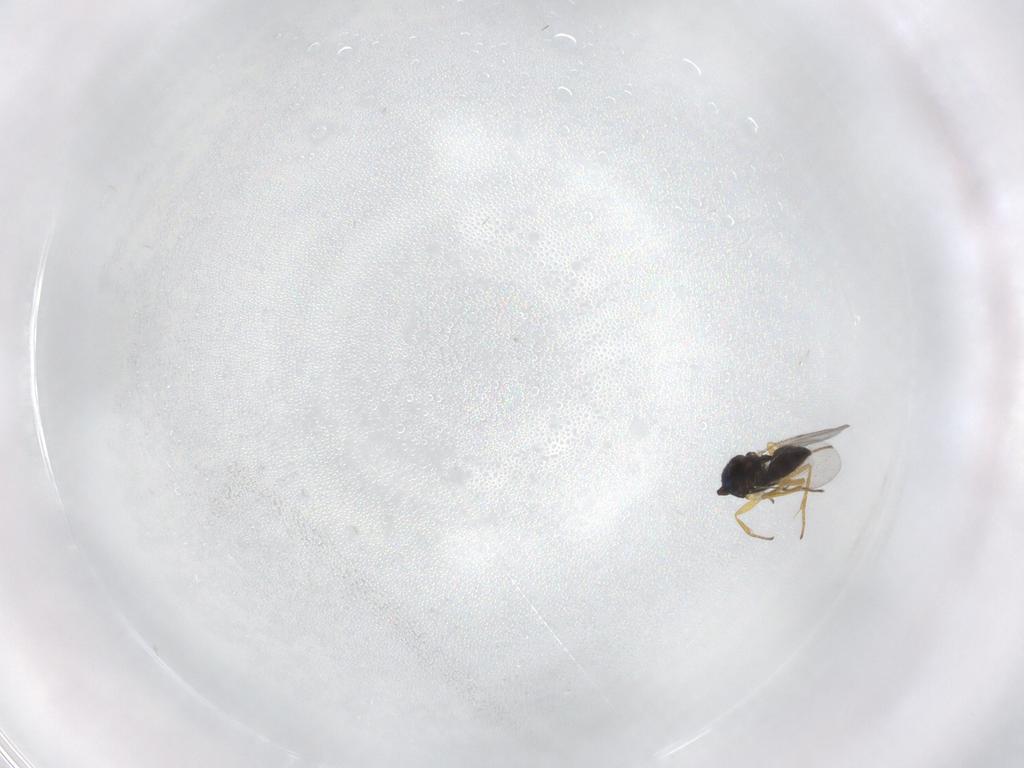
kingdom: Animalia
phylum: Arthropoda
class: Insecta
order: Hymenoptera
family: Encyrtidae
